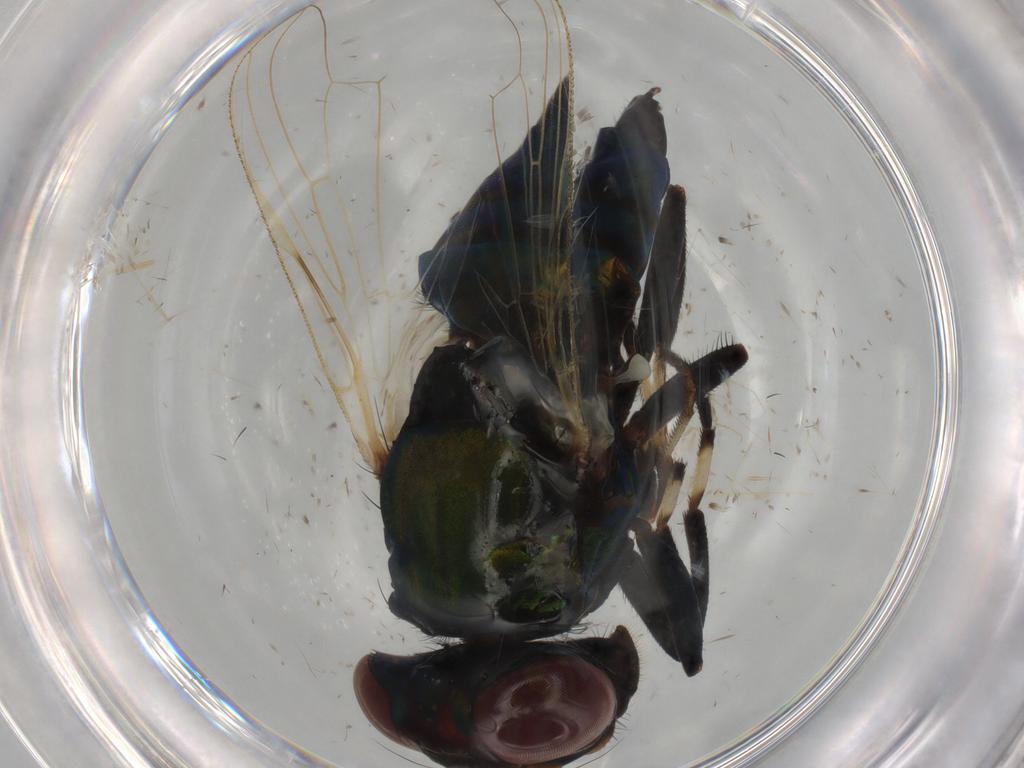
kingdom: Animalia
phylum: Arthropoda
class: Insecta
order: Diptera
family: Ulidiidae
